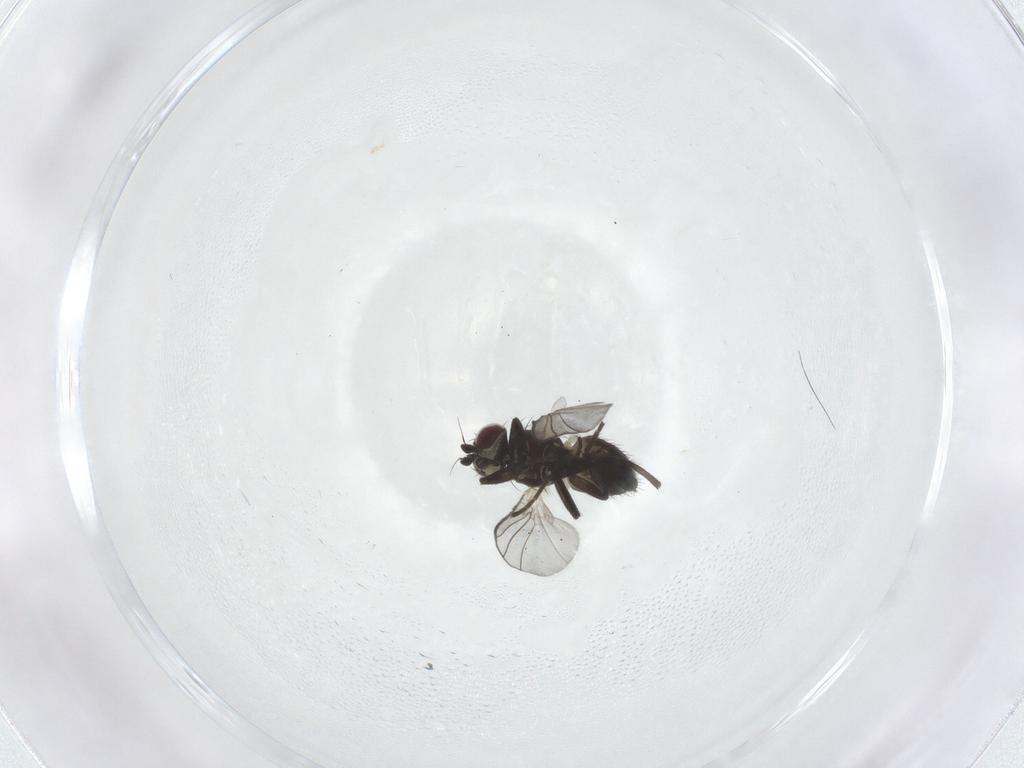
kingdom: Animalia
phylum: Arthropoda
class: Insecta
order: Diptera
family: Agromyzidae
